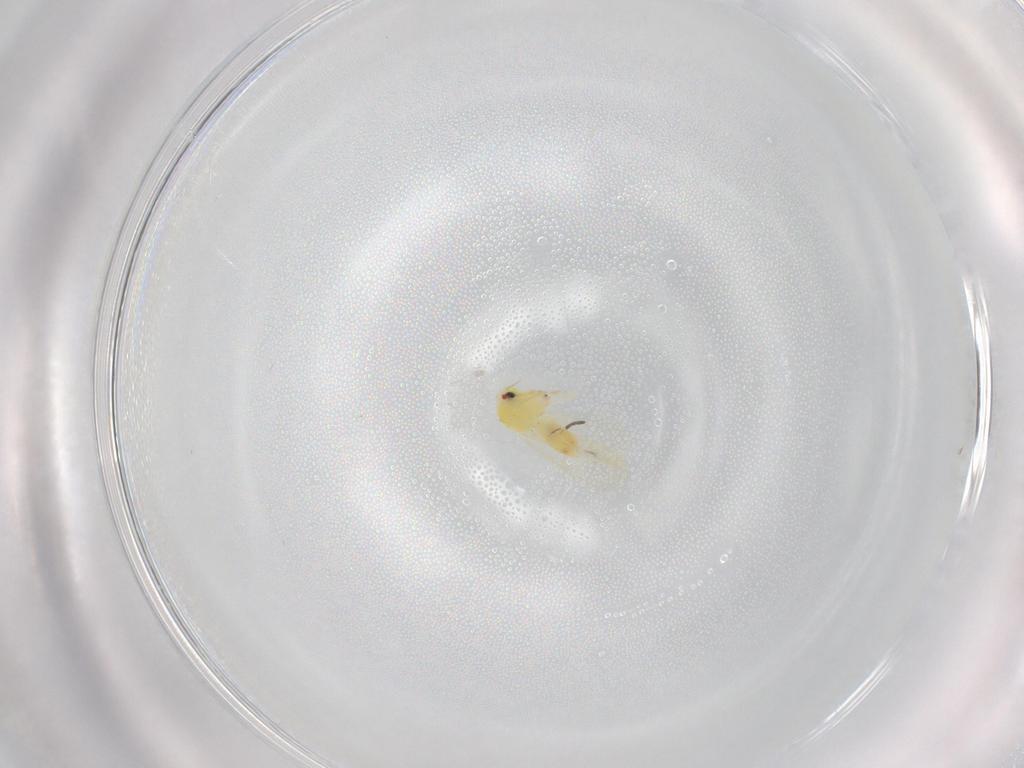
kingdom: Animalia
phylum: Arthropoda
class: Insecta
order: Hemiptera
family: Aleyrodidae
